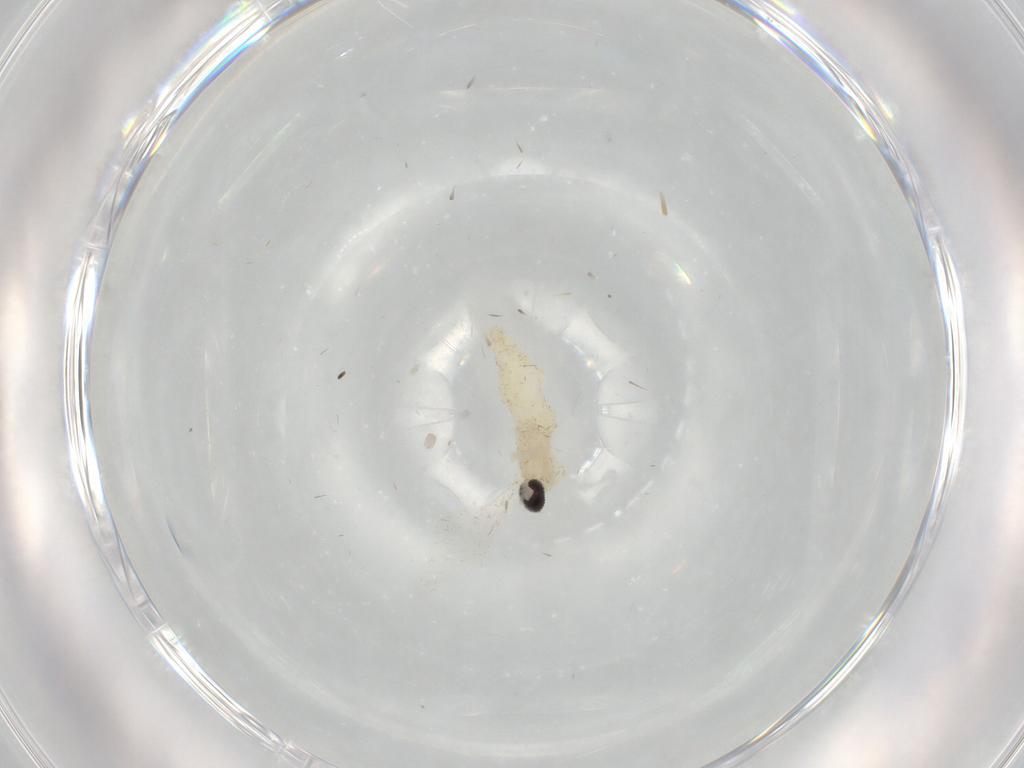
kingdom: Animalia
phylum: Arthropoda
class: Insecta
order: Diptera
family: Cecidomyiidae
